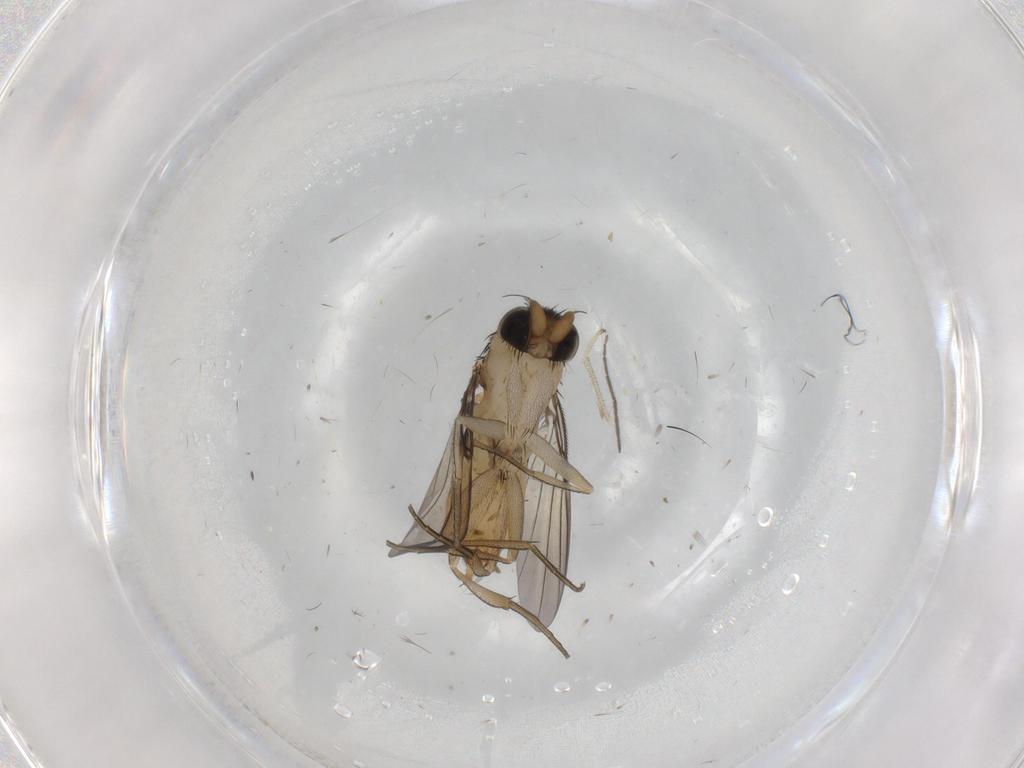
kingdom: Animalia
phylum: Arthropoda
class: Insecta
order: Diptera
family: Phoridae
